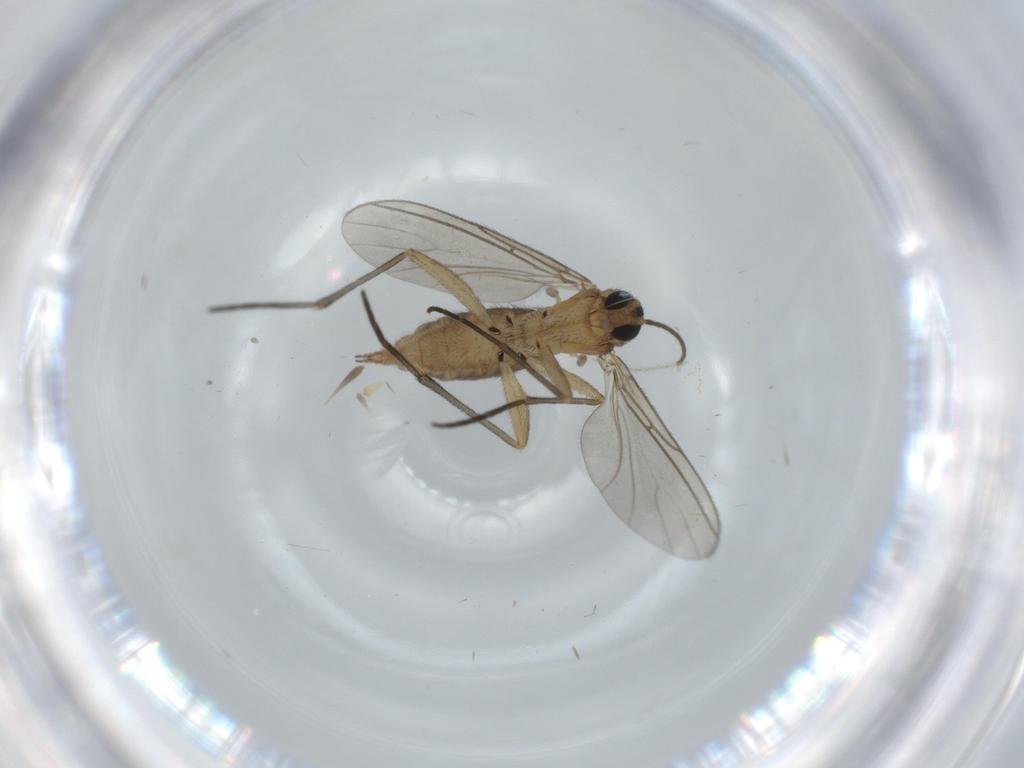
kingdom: Animalia
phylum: Arthropoda
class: Insecta
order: Diptera
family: Sciaridae
